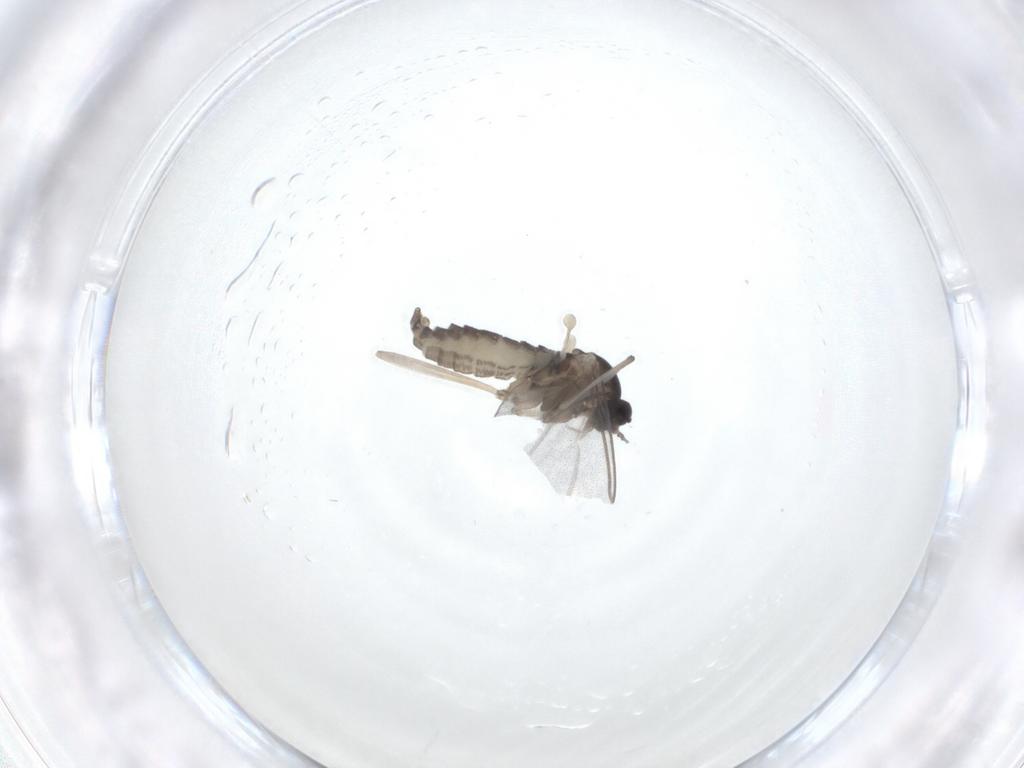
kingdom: Animalia
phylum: Arthropoda
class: Insecta
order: Diptera
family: Cecidomyiidae
